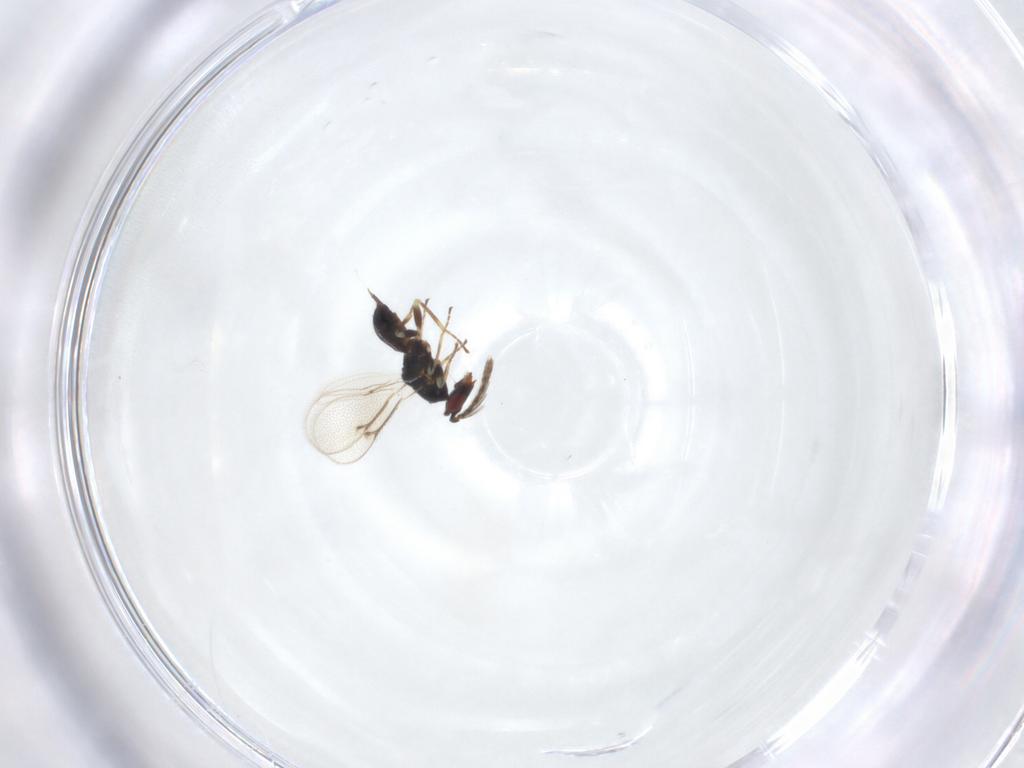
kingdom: Animalia
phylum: Arthropoda
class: Insecta
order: Hymenoptera
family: Eulophidae
